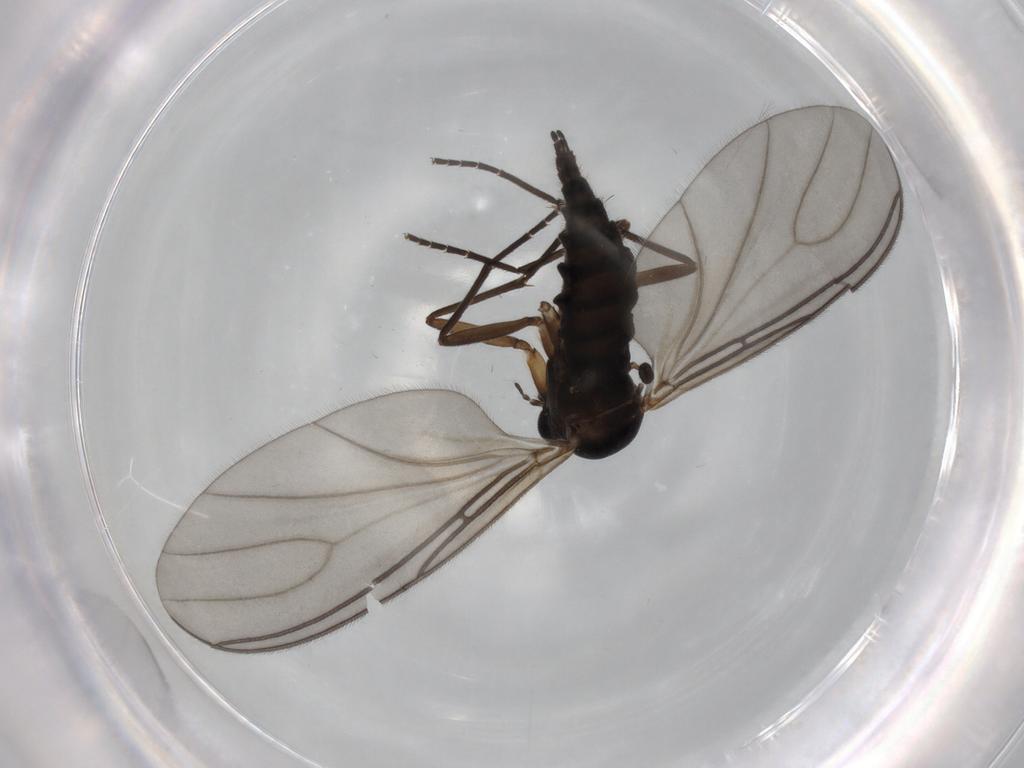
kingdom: Animalia
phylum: Arthropoda
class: Insecta
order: Diptera
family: Sciaridae
